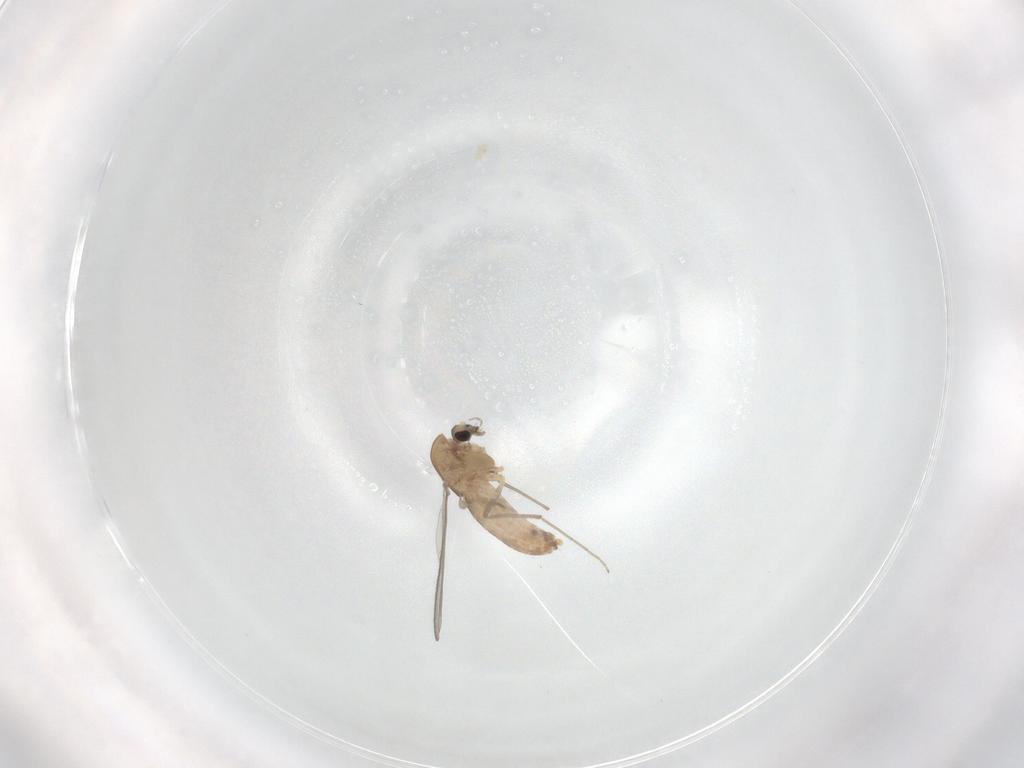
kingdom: Animalia
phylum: Arthropoda
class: Insecta
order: Diptera
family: Chironomidae
